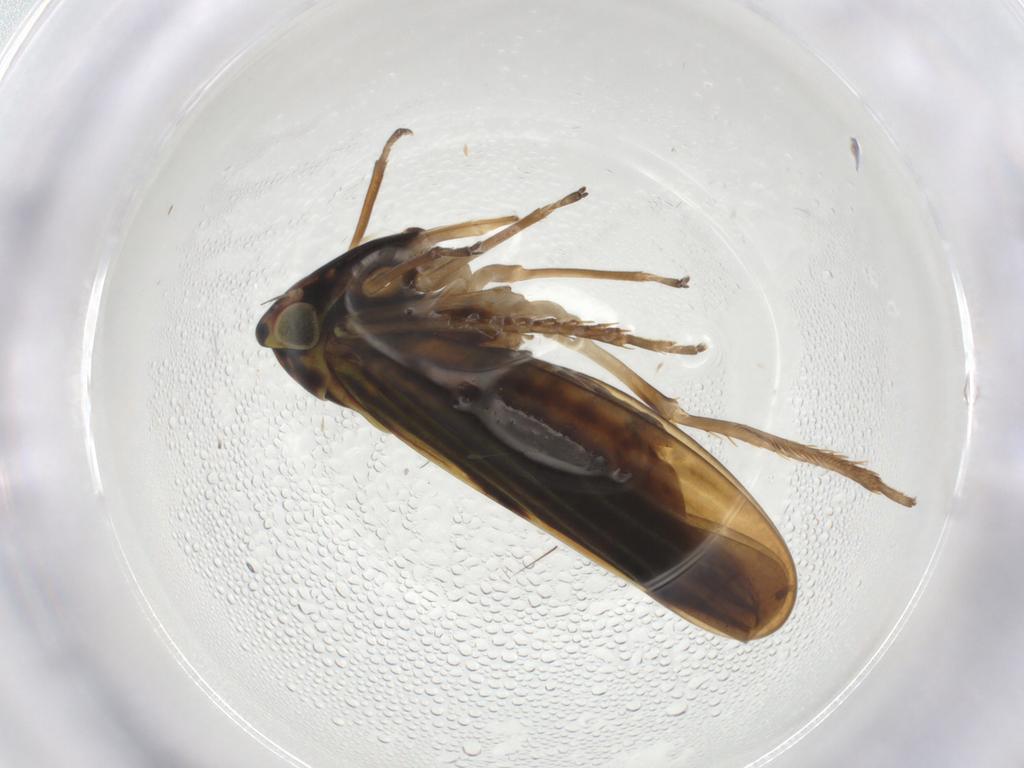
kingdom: Animalia
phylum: Arthropoda
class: Insecta
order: Hemiptera
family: Cicadellidae
